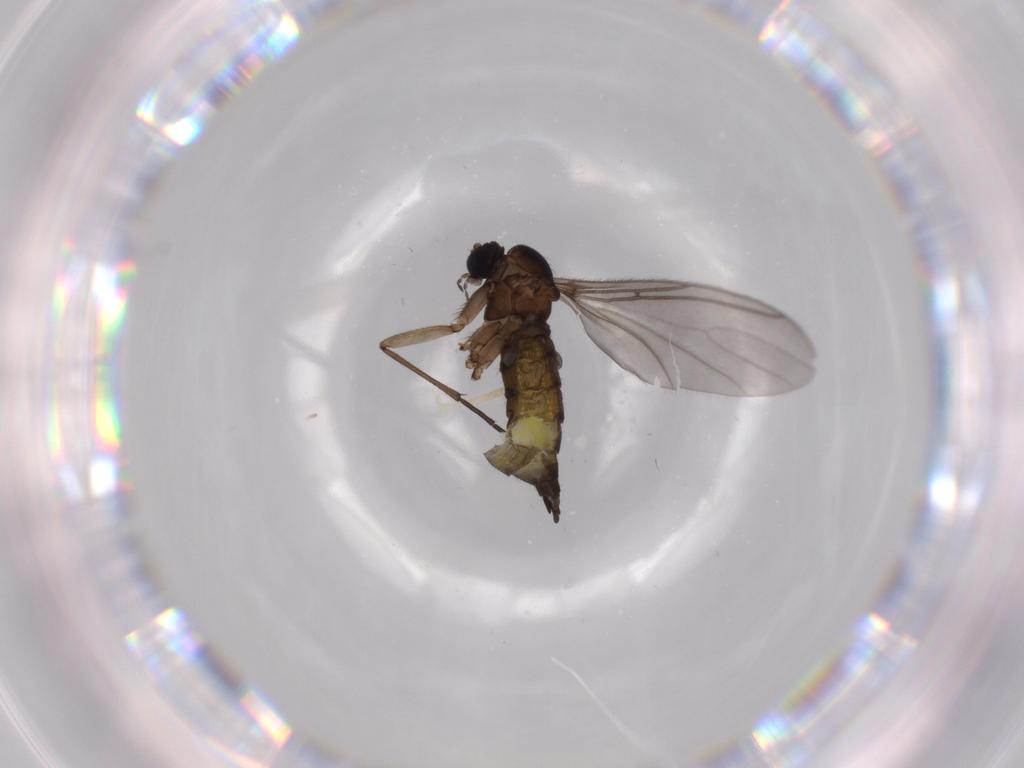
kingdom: Animalia
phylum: Arthropoda
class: Insecta
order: Diptera
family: Sciaridae
